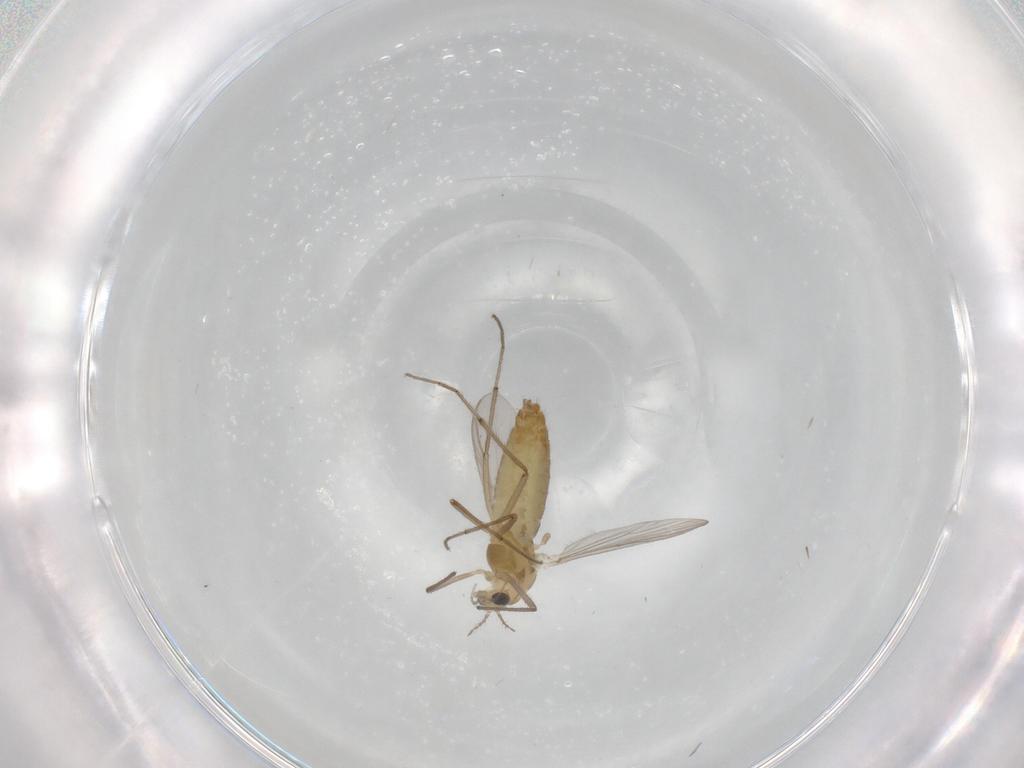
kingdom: Animalia
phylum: Arthropoda
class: Insecta
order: Diptera
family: Chironomidae
